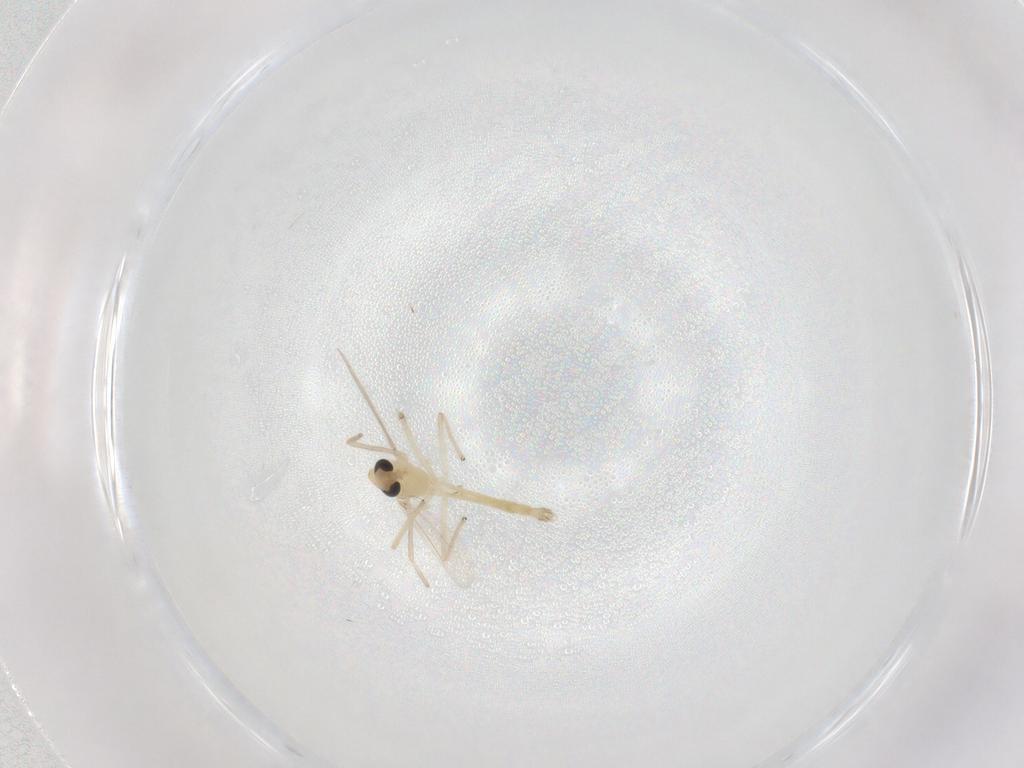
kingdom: Animalia
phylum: Arthropoda
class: Insecta
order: Diptera
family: Chironomidae
